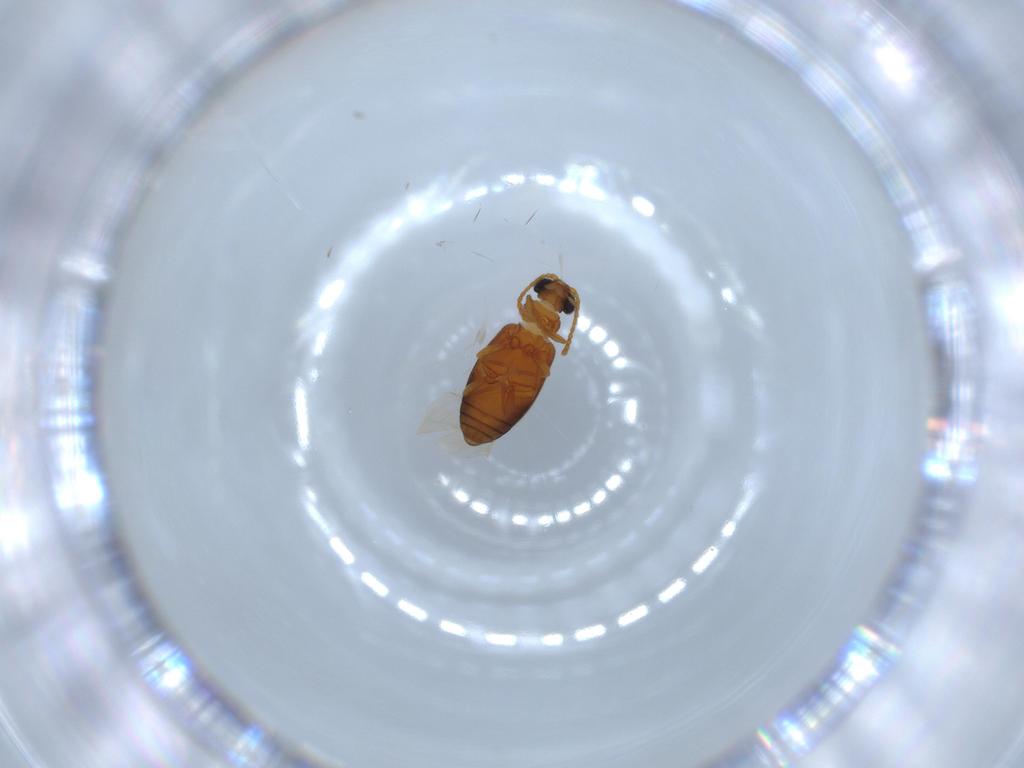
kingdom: Animalia
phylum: Arthropoda
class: Insecta
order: Coleoptera
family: Aderidae
